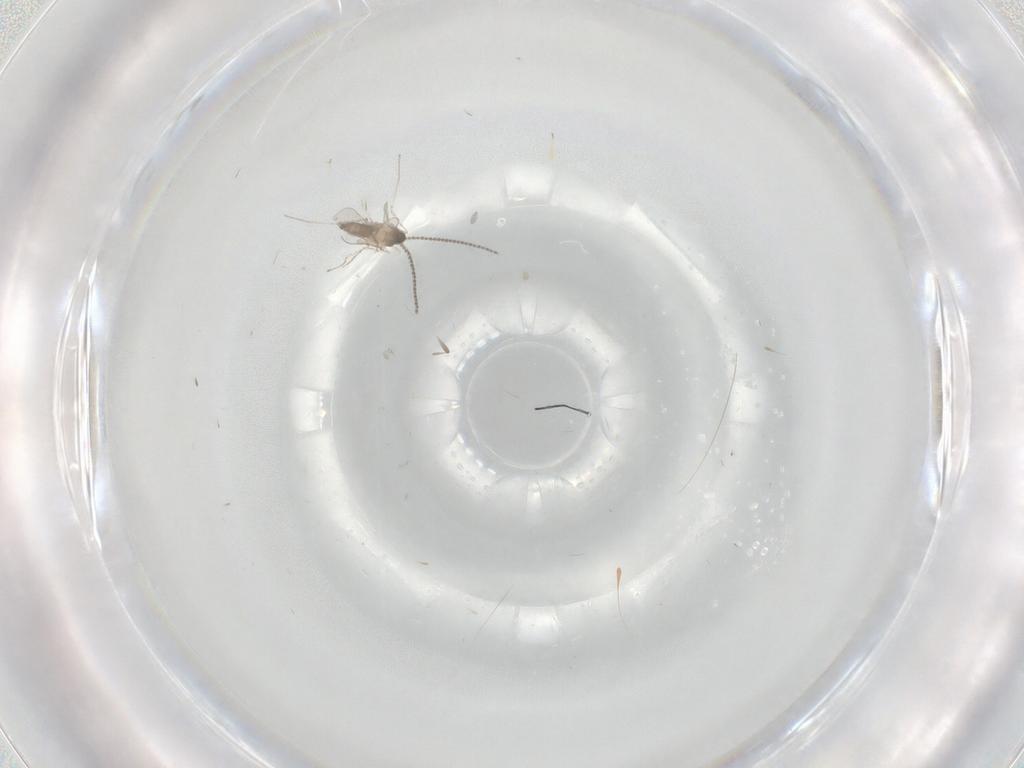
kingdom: Animalia
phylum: Arthropoda
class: Insecta
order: Diptera
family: Cecidomyiidae
